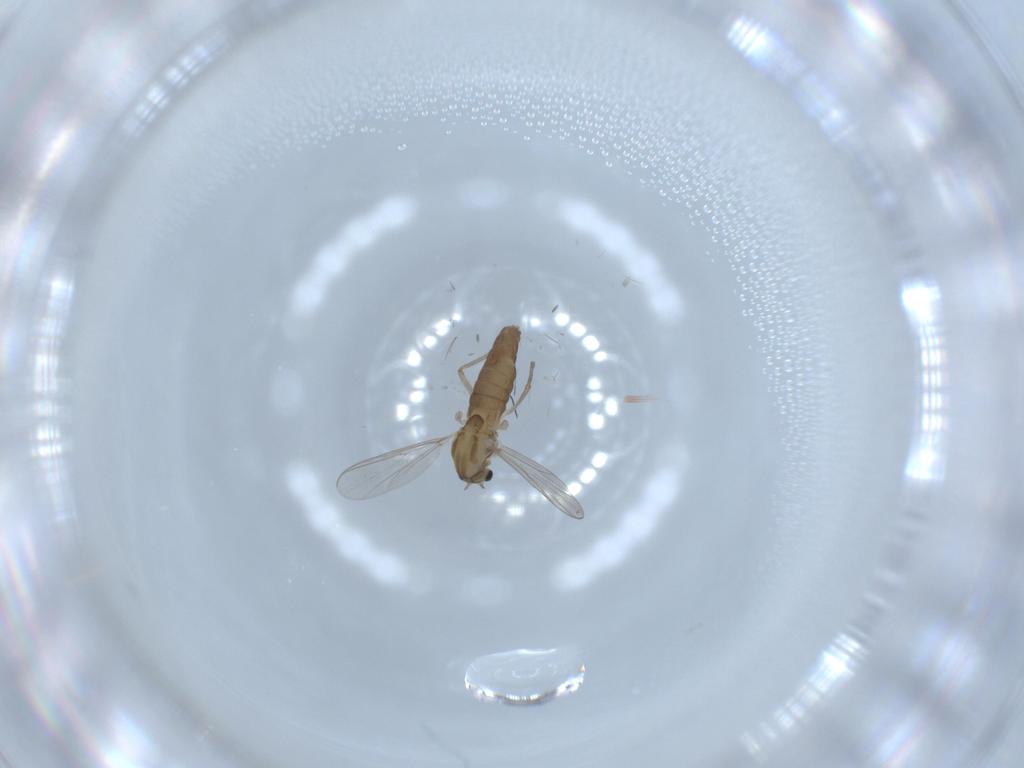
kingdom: Animalia
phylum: Arthropoda
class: Insecta
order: Diptera
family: Chironomidae
